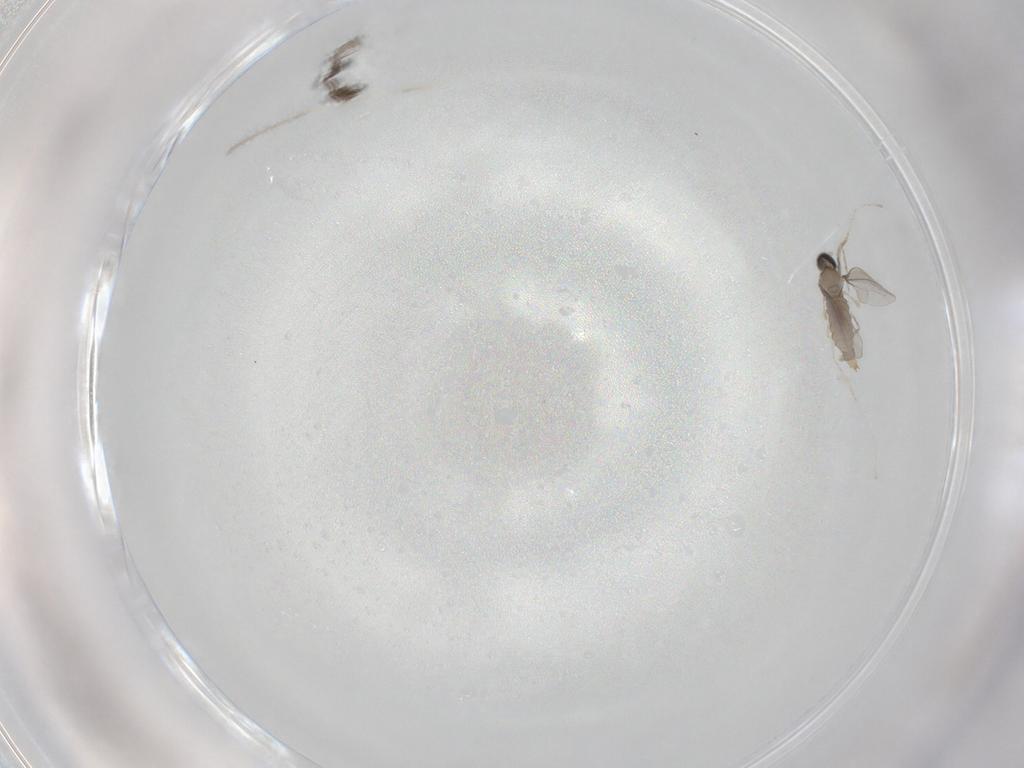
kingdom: Animalia
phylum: Arthropoda
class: Insecta
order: Diptera
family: Cecidomyiidae
